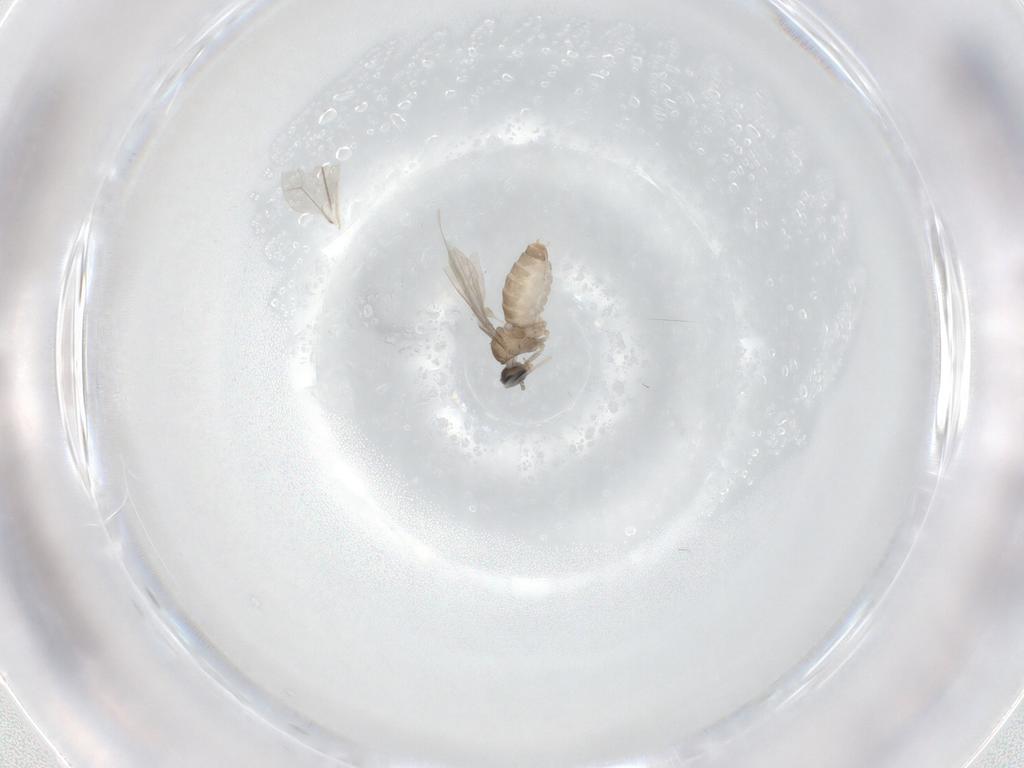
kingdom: Animalia
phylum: Arthropoda
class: Insecta
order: Diptera
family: Cecidomyiidae
